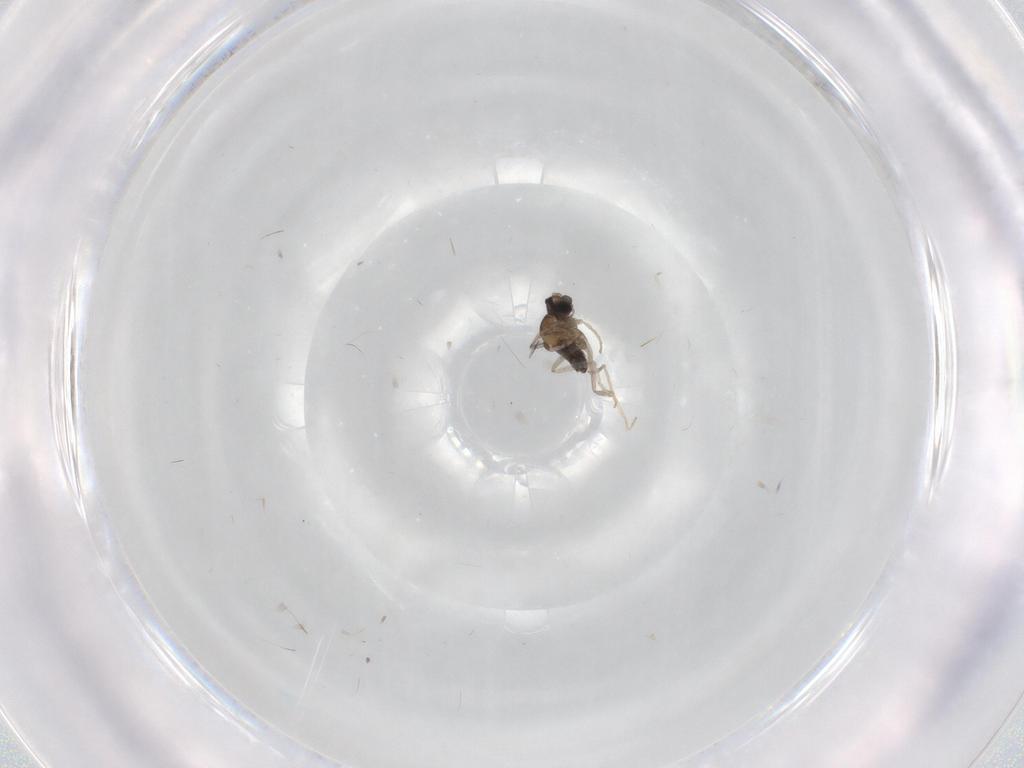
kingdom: Animalia
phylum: Arthropoda
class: Insecta
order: Diptera
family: Cecidomyiidae
